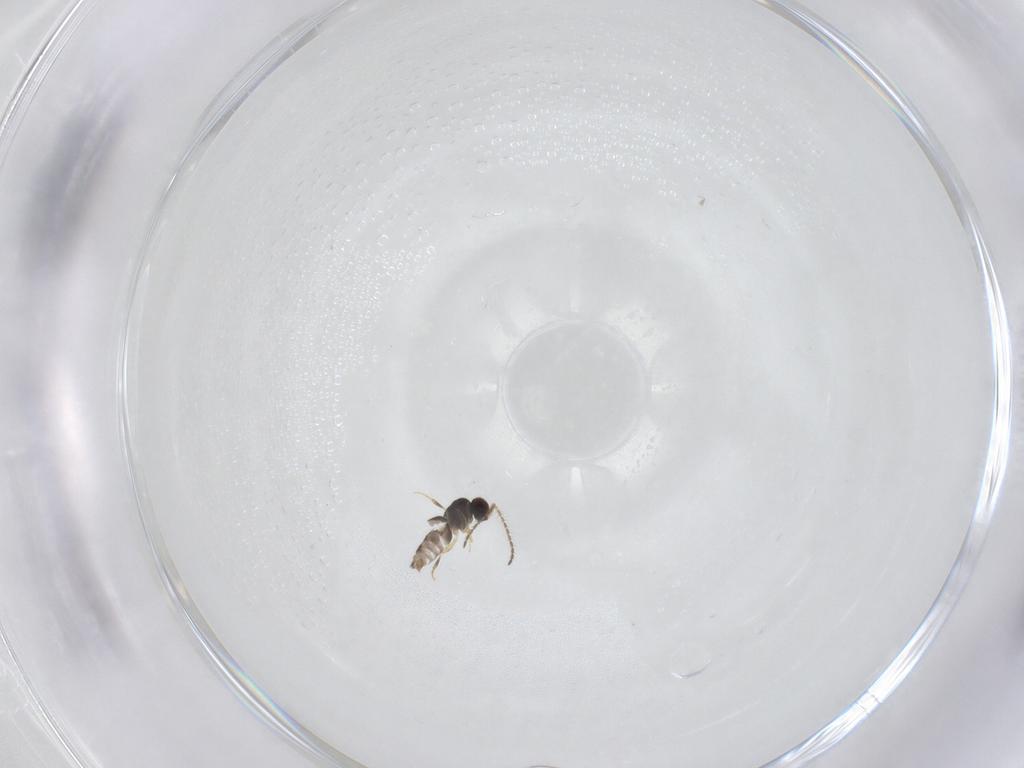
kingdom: Animalia
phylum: Arthropoda
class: Insecta
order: Hymenoptera
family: Ceraphronidae
